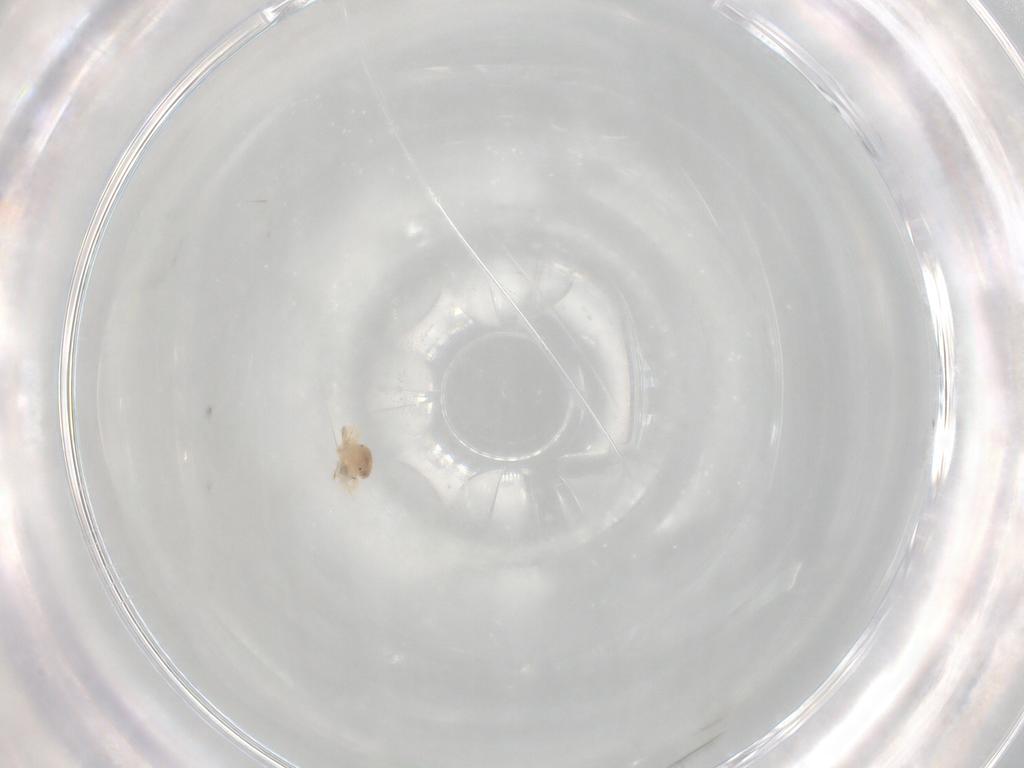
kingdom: Animalia
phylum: Arthropoda
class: Arachnida
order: Trombidiformes
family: Anystidae
